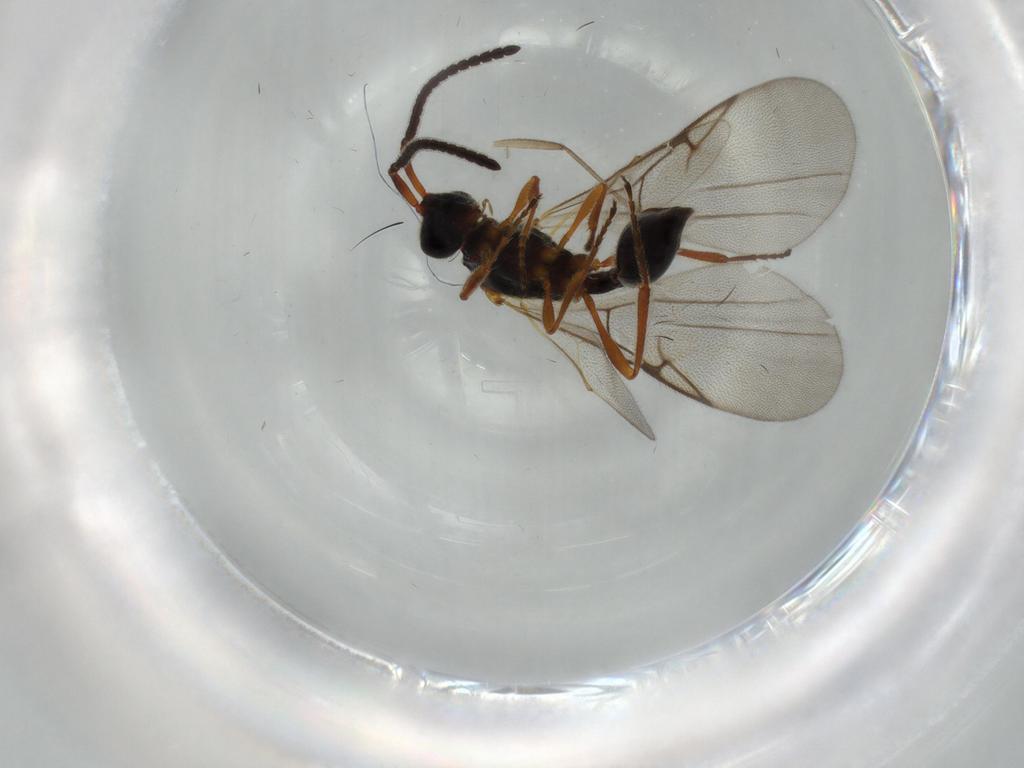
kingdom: Animalia
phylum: Arthropoda
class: Insecta
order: Hymenoptera
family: Diapriidae
